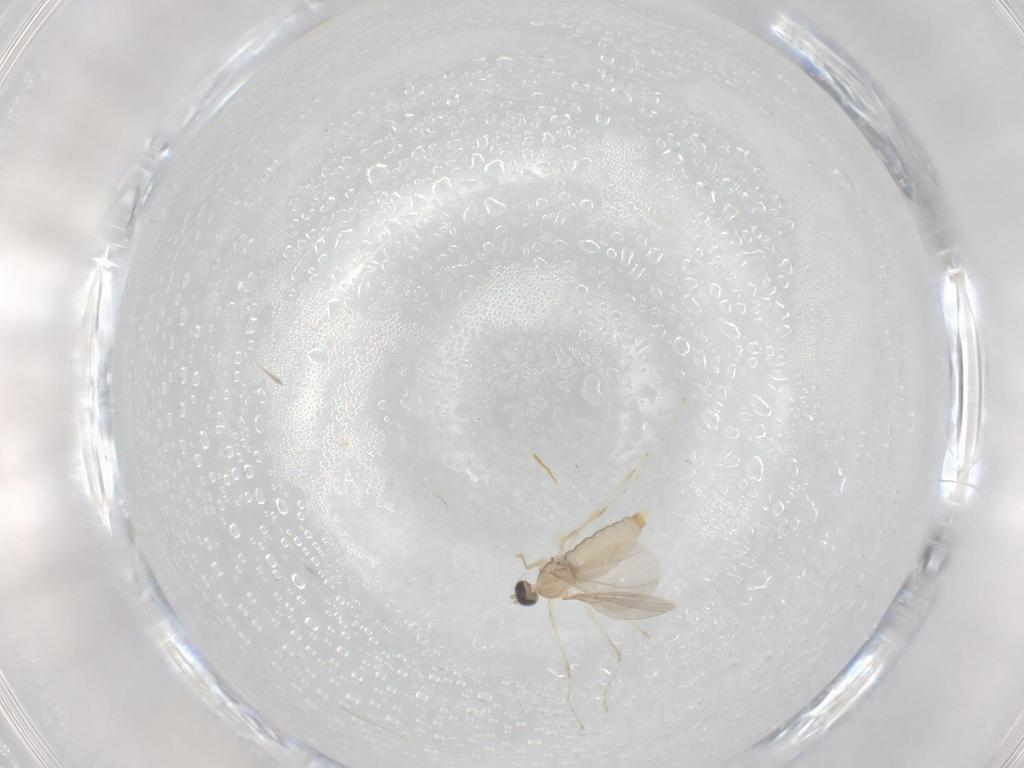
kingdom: Animalia
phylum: Arthropoda
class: Insecta
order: Diptera
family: Cecidomyiidae
